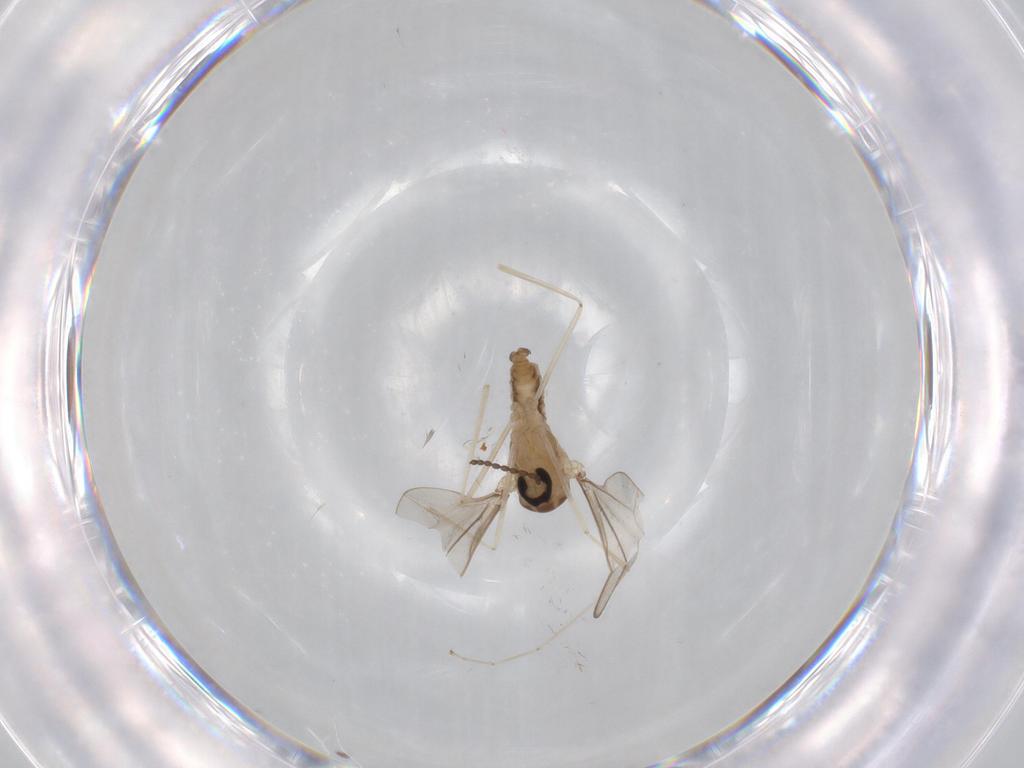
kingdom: Animalia
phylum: Arthropoda
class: Insecta
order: Diptera
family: Cecidomyiidae
